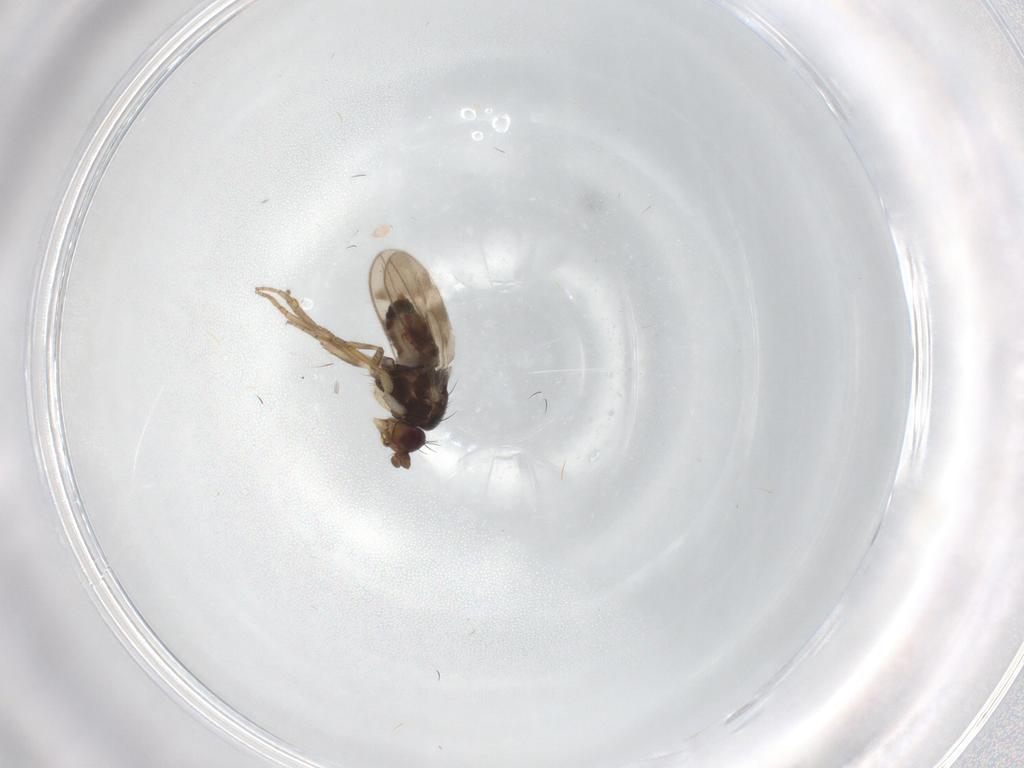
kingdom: Animalia
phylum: Arthropoda
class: Insecta
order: Diptera
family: Sphaeroceridae
